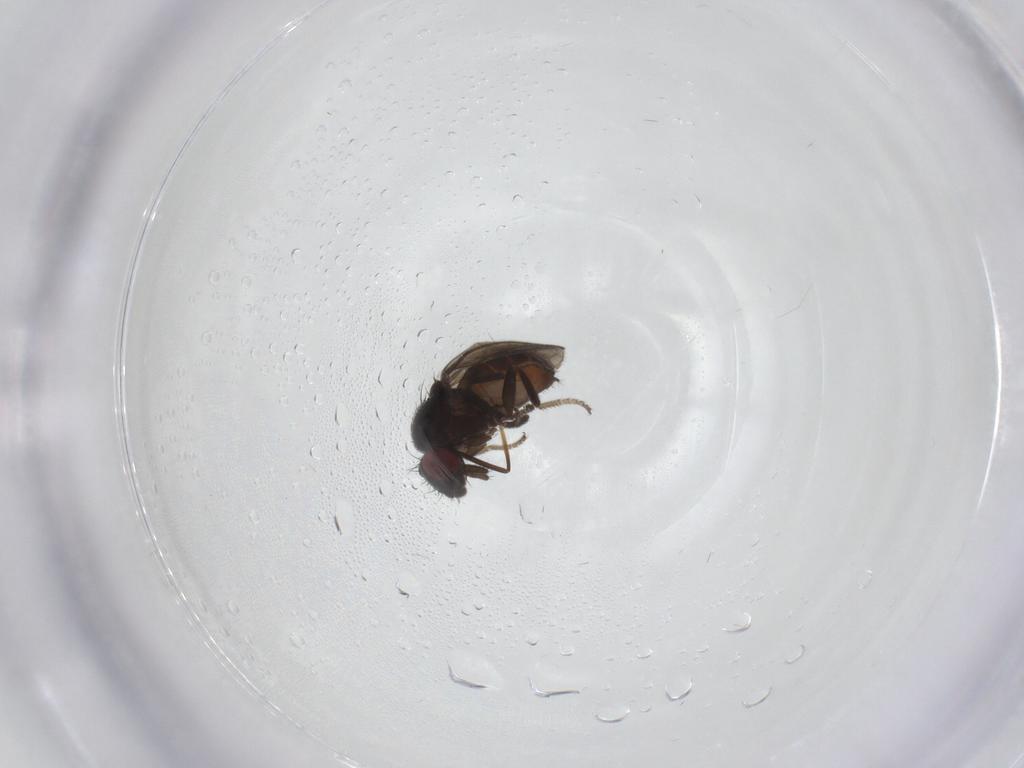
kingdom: Animalia
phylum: Arthropoda
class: Insecta
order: Diptera
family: Milichiidae
